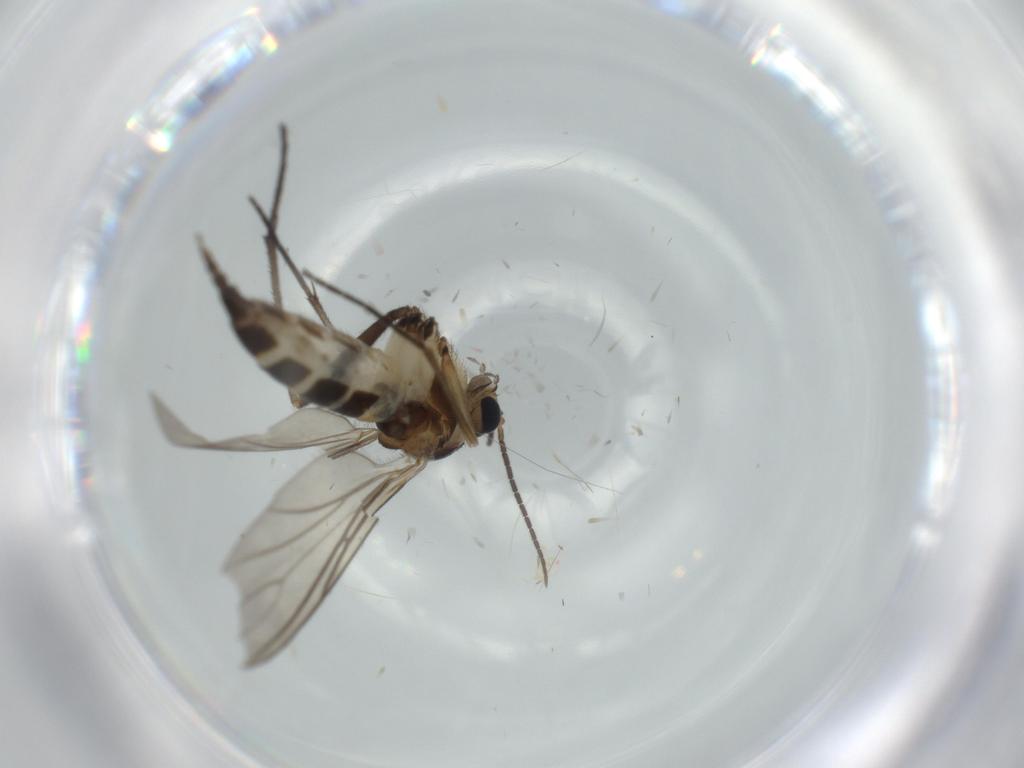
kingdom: Animalia
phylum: Arthropoda
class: Insecta
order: Diptera
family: Sciaridae
